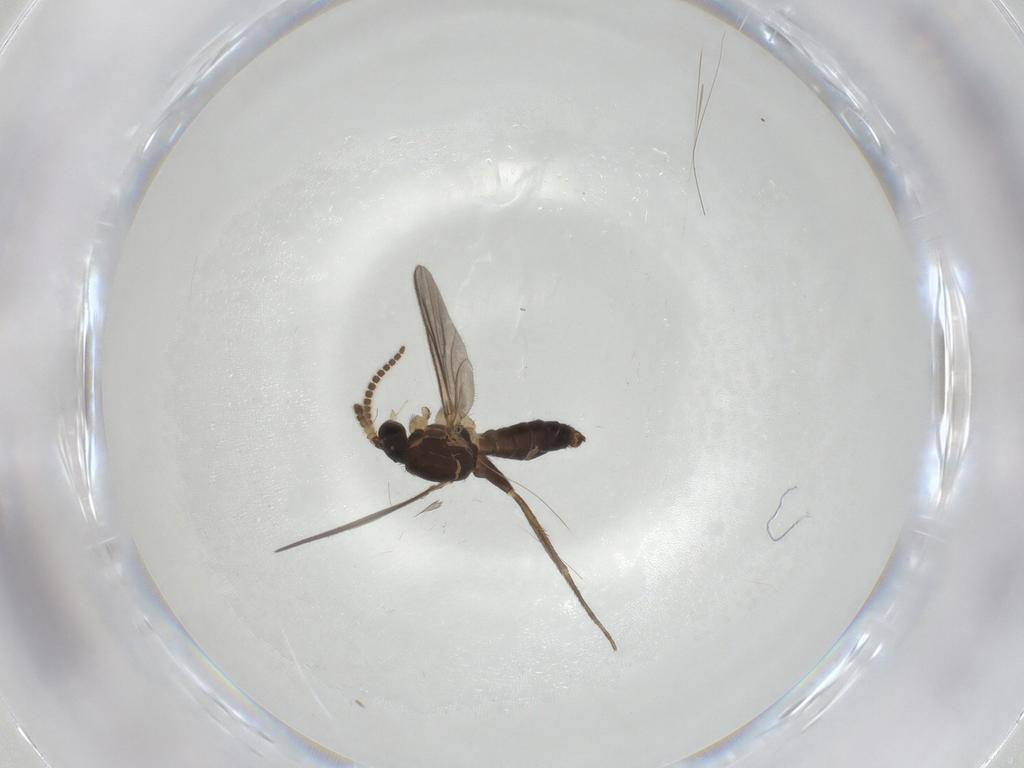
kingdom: Animalia
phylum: Arthropoda
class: Insecta
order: Diptera
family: Mycetophilidae
